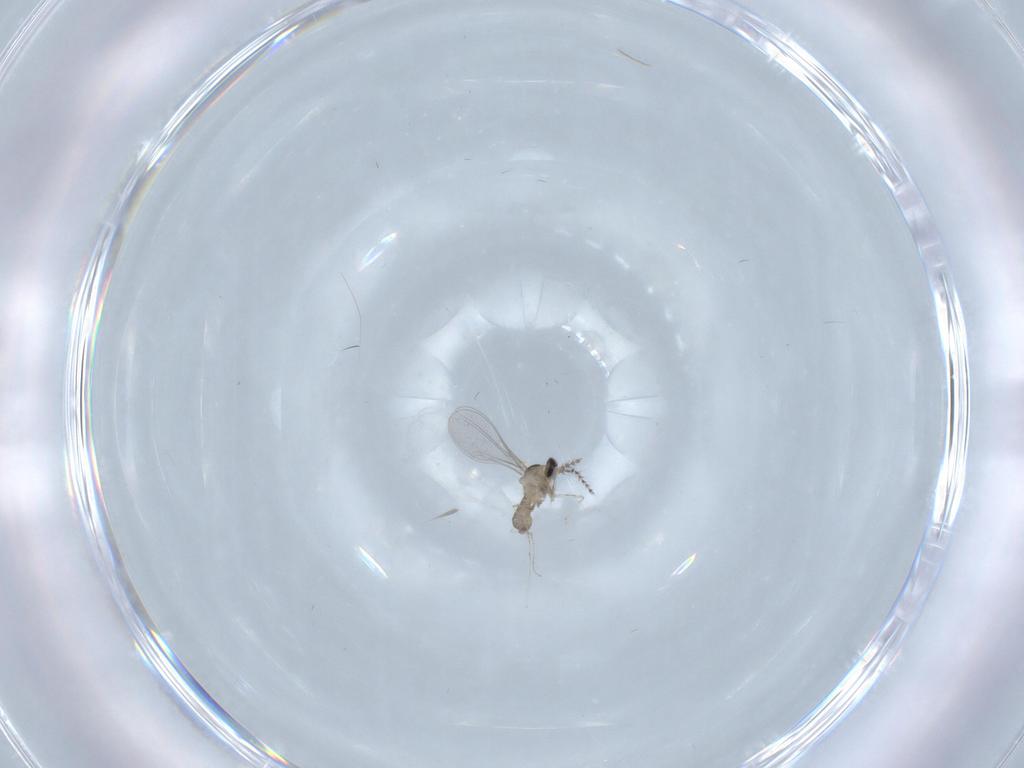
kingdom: Animalia
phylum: Arthropoda
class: Insecta
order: Diptera
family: Cecidomyiidae
